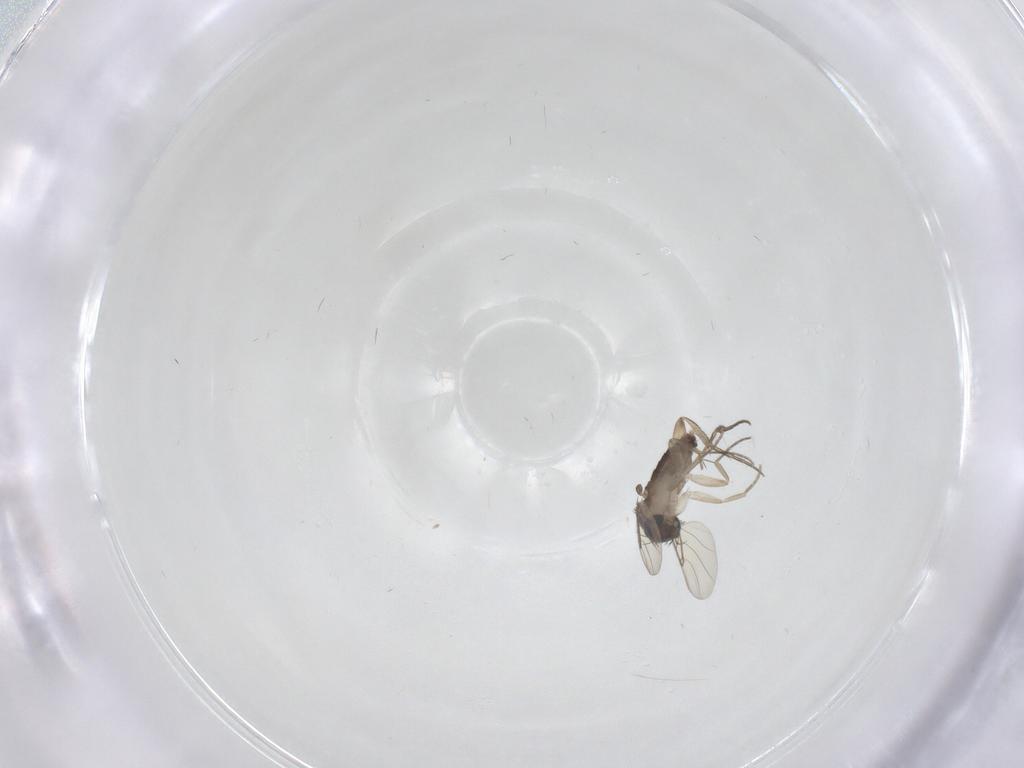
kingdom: Animalia
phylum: Arthropoda
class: Insecta
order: Diptera
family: Phoridae
